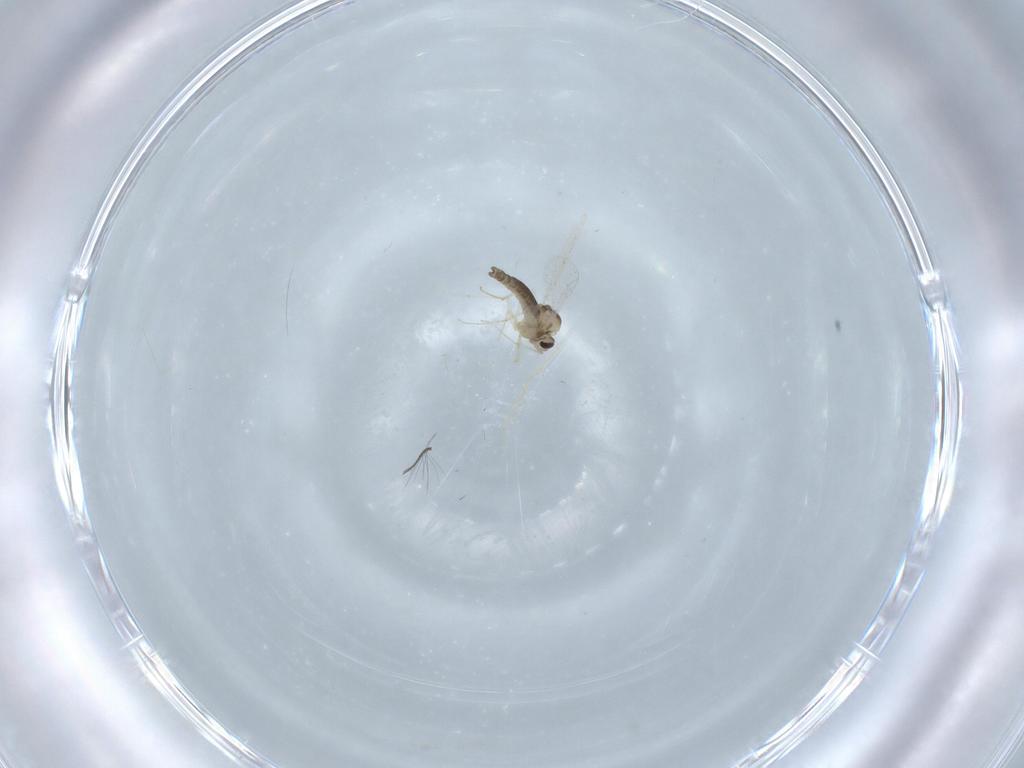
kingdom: Animalia
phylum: Arthropoda
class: Insecta
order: Diptera
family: Chironomidae
